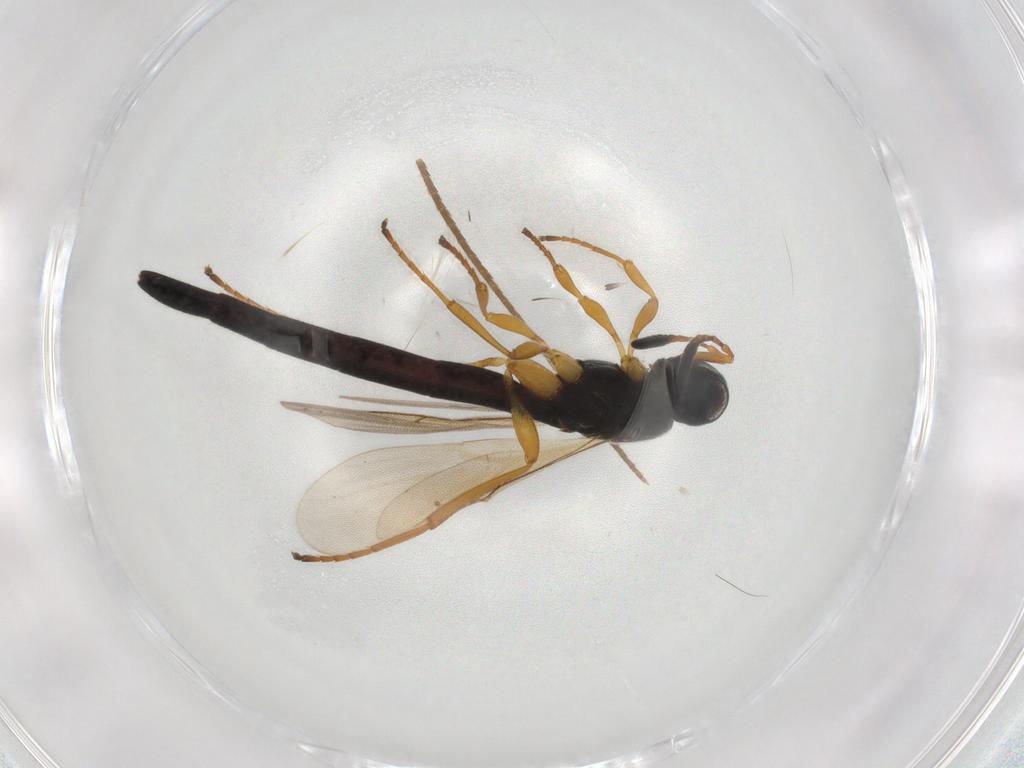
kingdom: Animalia
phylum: Arthropoda
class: Insecta
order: Hymenoptera
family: Scelionidae
